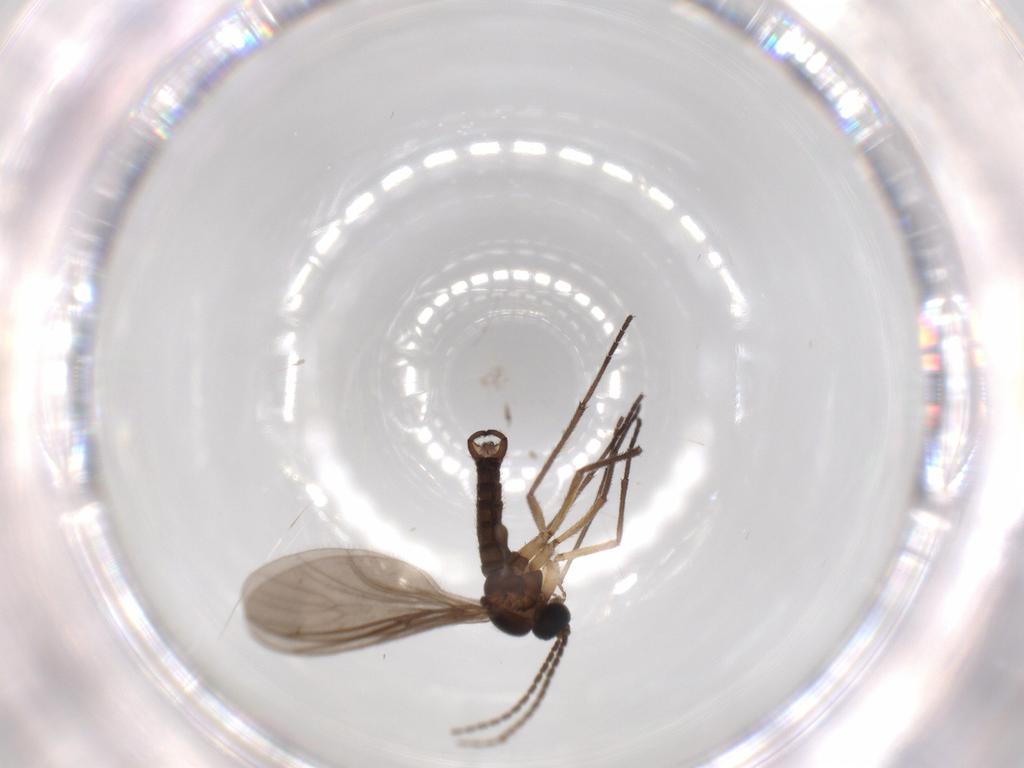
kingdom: Animalia
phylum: Arthropoda
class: Insecta
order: Diptera
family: Sciaridae
